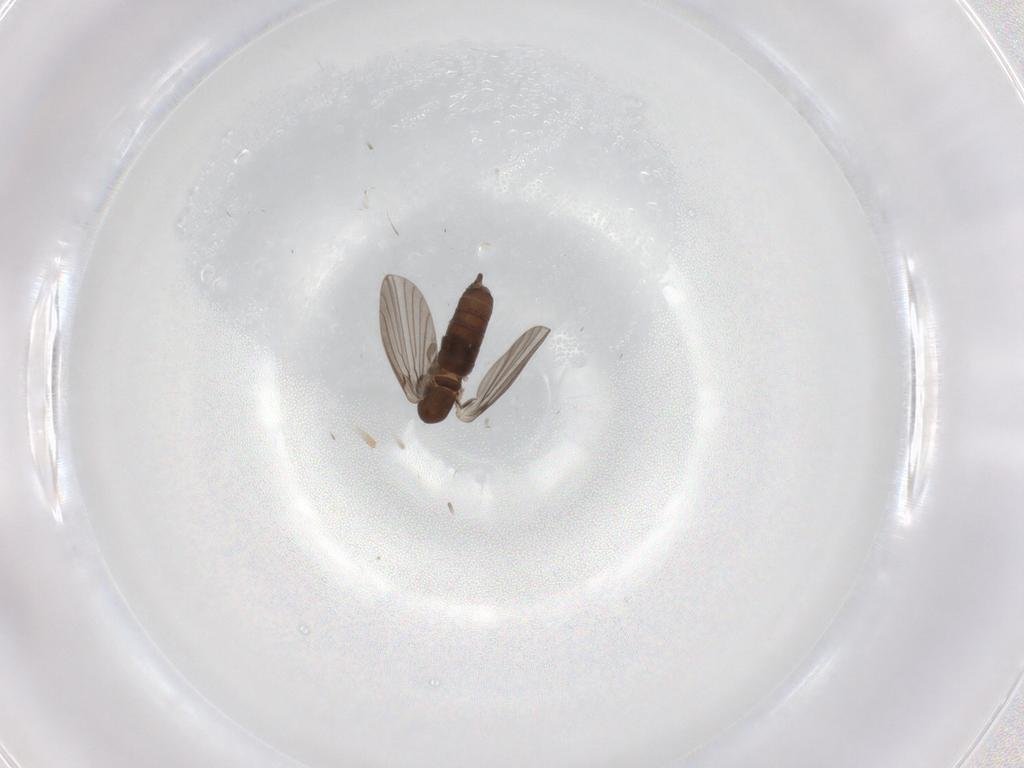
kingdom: Animalia
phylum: Arthropoda
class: Insecta
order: Diptera
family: Psychodidae
